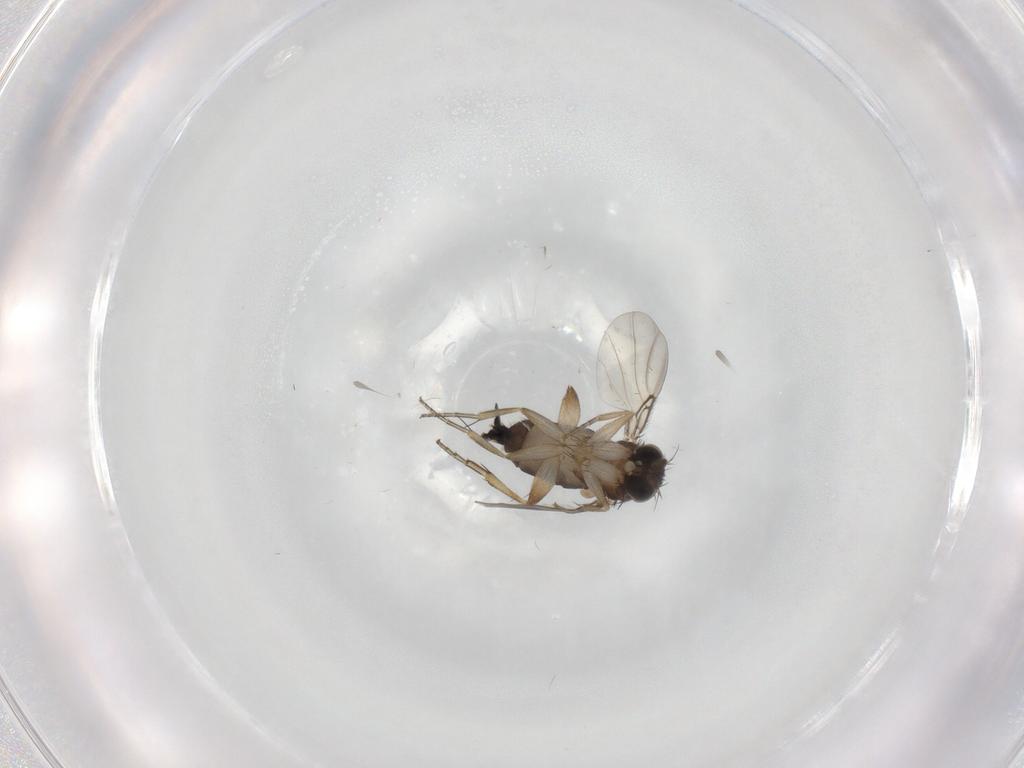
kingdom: Animalia
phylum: Arthropoda
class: Insecta
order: Diptera
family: Phoridae
